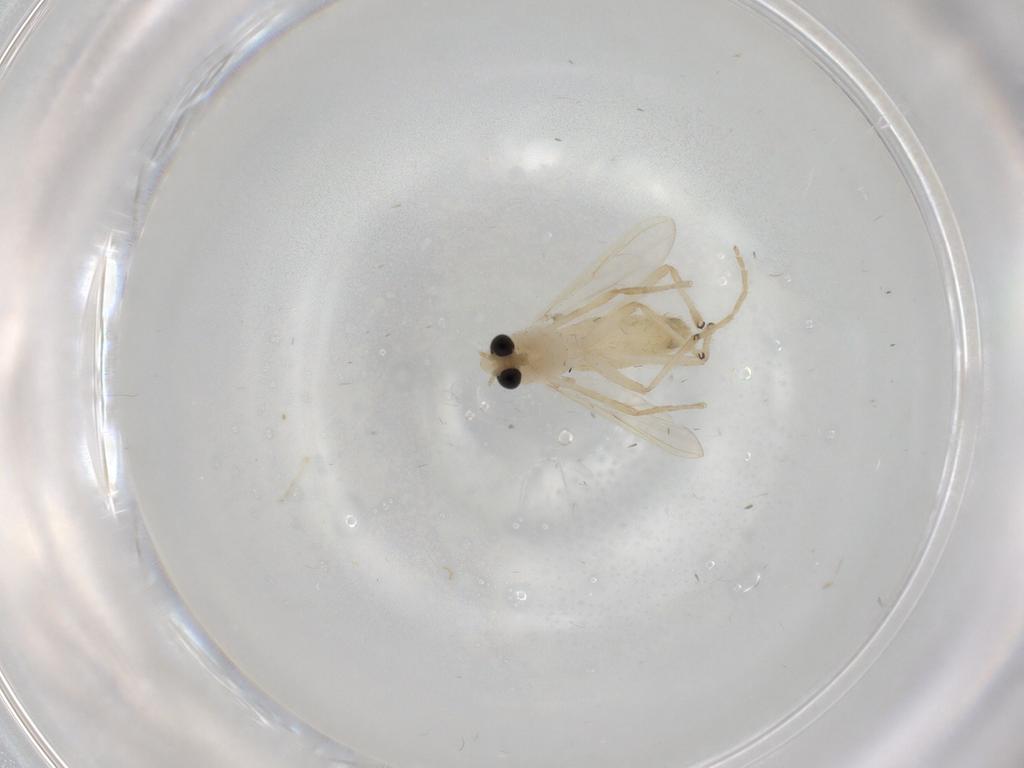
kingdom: Animalia
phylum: Arthropoda
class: Insecta
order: Diptera
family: Chironomidae
